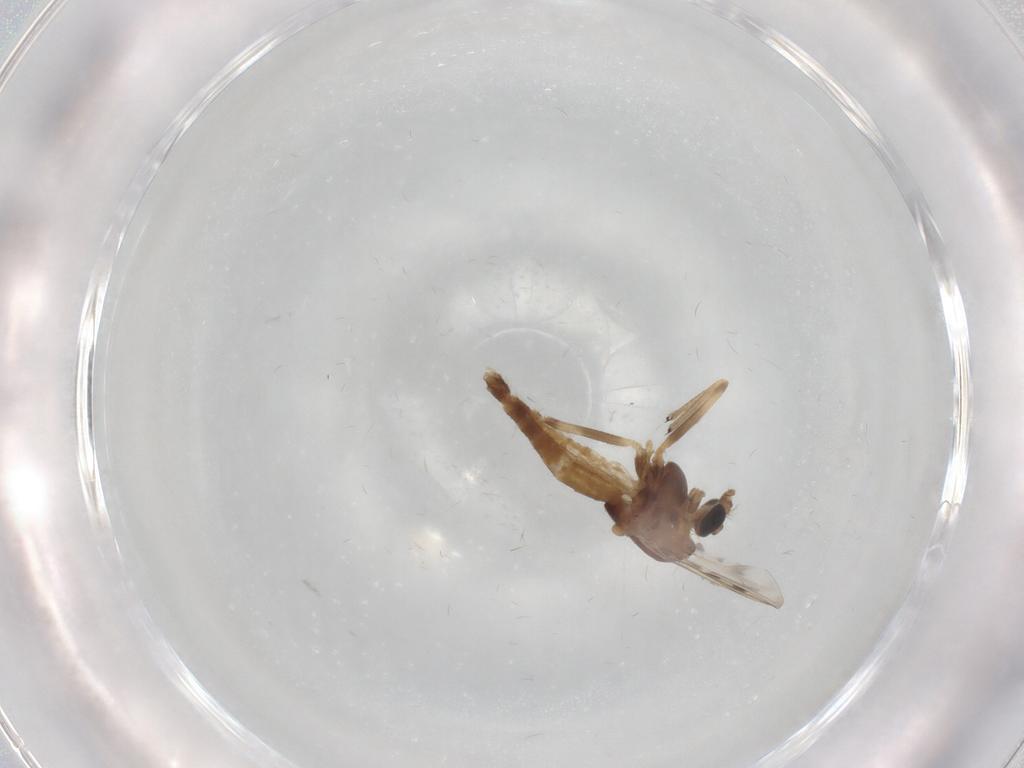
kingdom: Animalia
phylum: Arthropoda
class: Insecta
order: Diptera
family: Chironomidae
